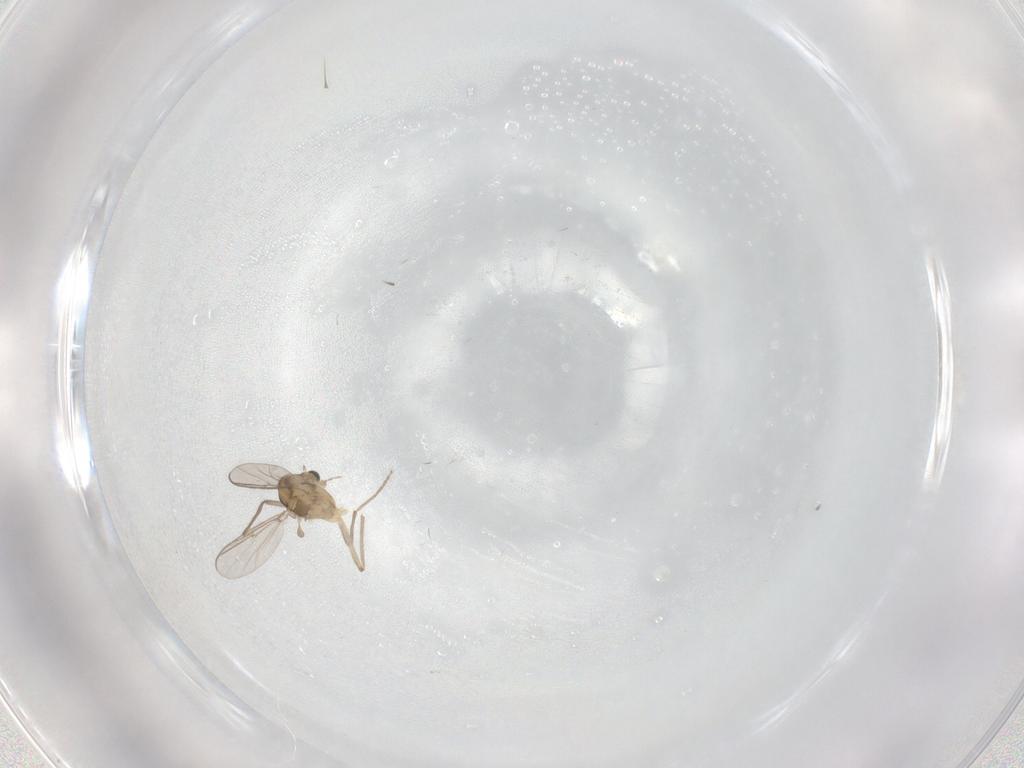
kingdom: Animalia
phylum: Arthropoda
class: Insecta
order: Diptera
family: Chironomidae
